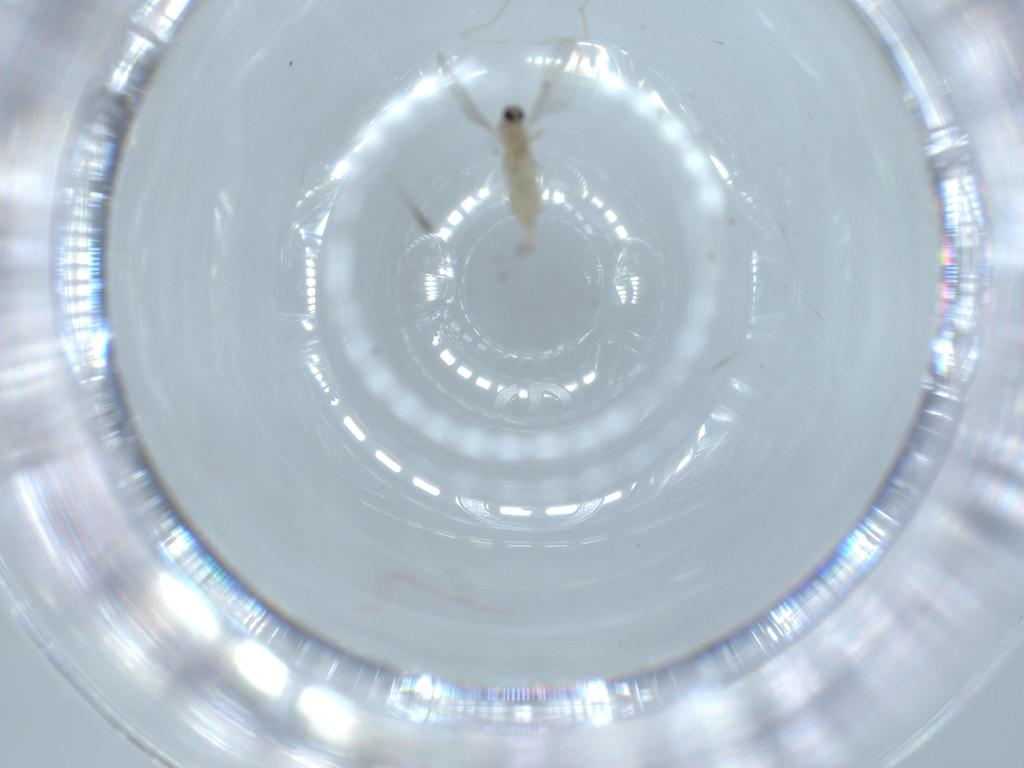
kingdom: Animalia
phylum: Arthropoda
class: Insecta
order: Diptera
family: Cecidomyiidae
